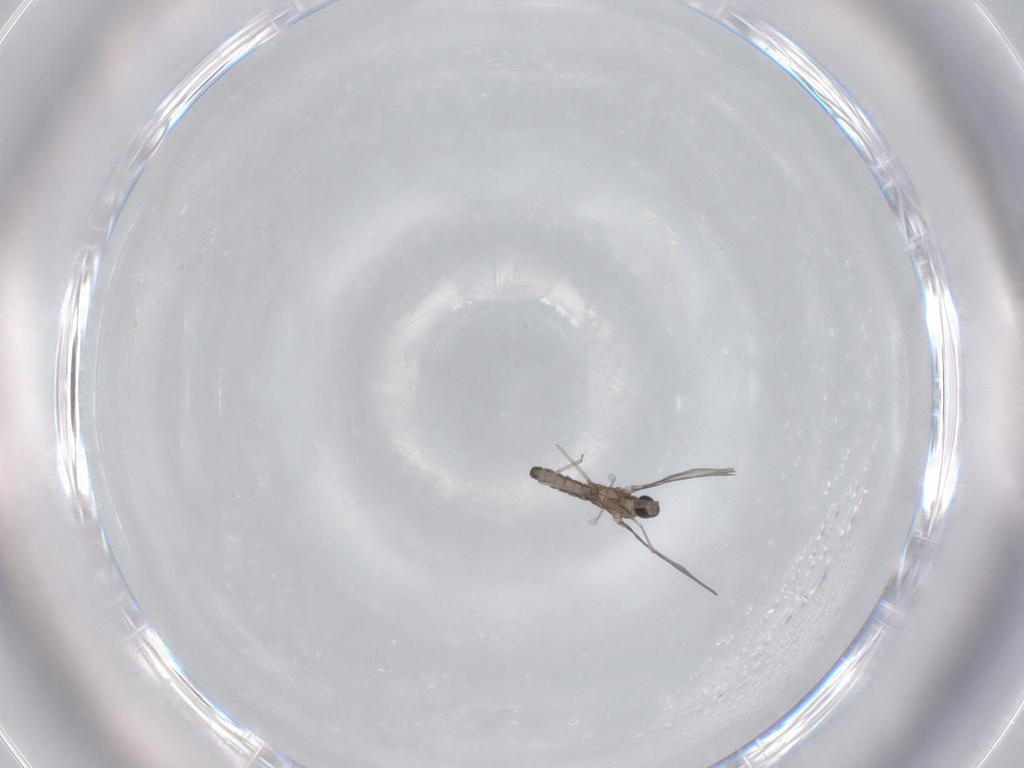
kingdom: Animalia
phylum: Arthropoda
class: Insecta
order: Diptera
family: Cecidomyiidae
